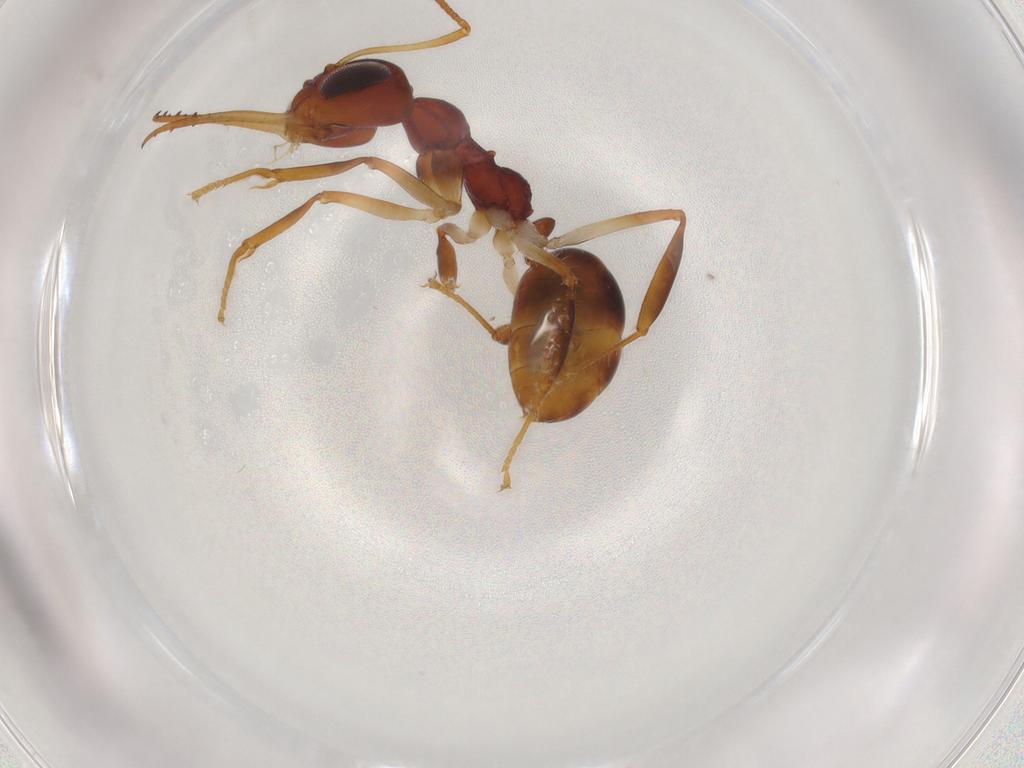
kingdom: Animalia
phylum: Arthropoda
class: Insecta
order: Hymenoptera
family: Formicidae
